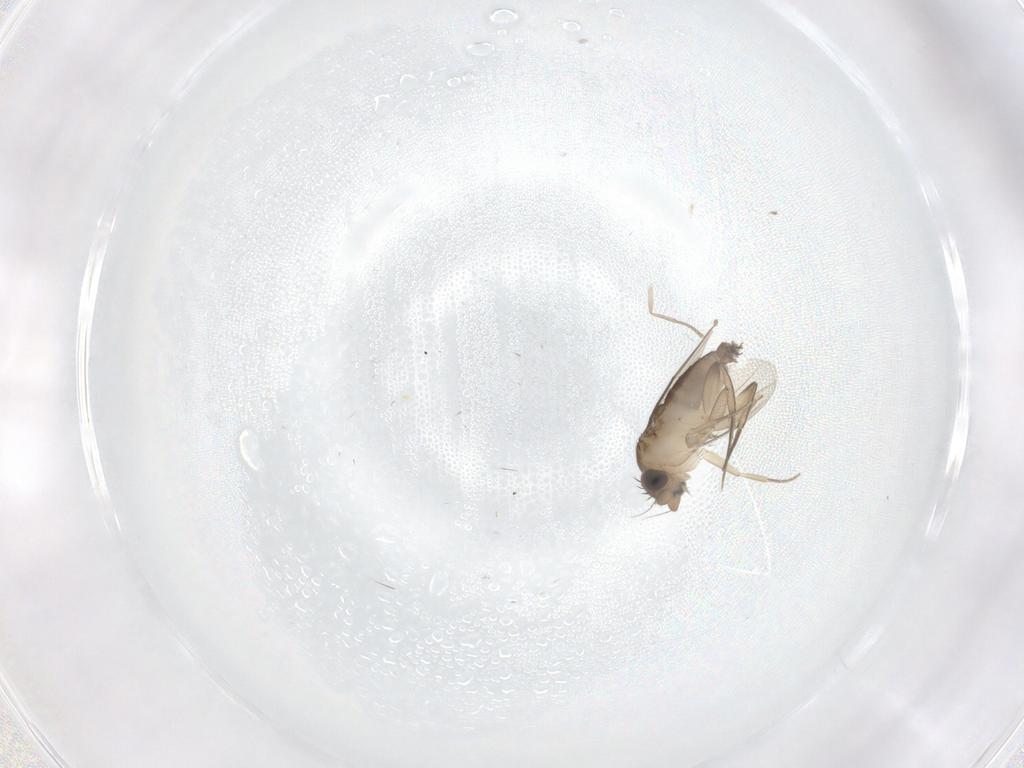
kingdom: Animalia
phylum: Arthropoda
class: Insecta
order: Diptera
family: Phoridae
